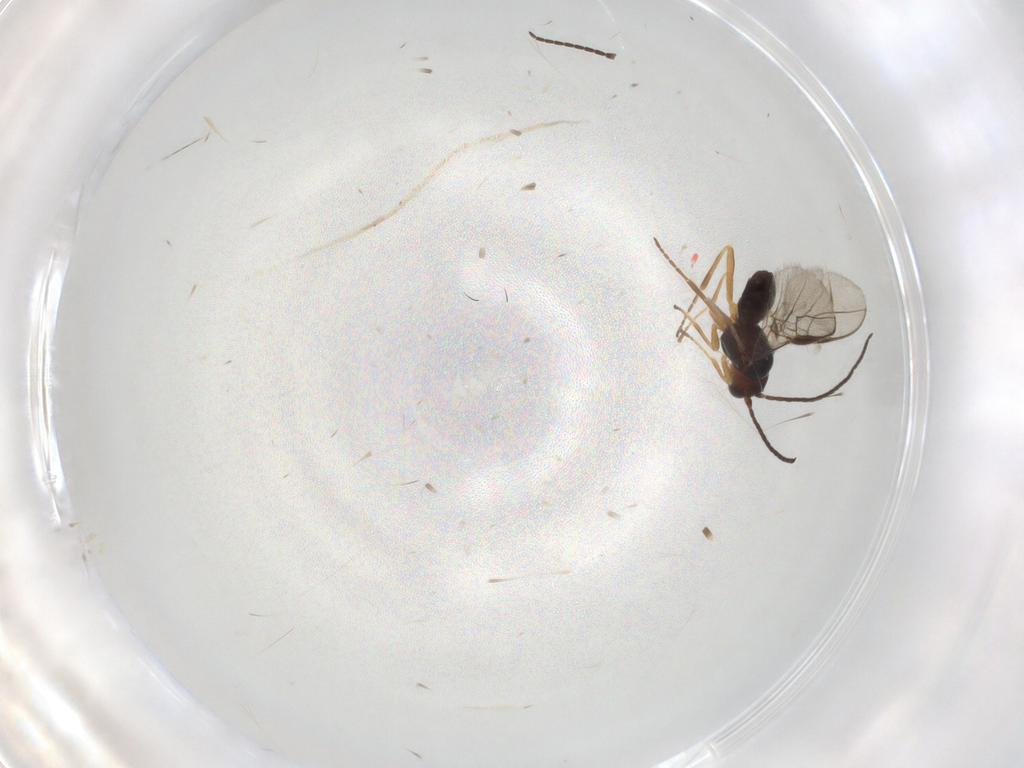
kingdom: Animalia
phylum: Arthropoda
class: Insecta
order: Hymenoptera
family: Braconidae
